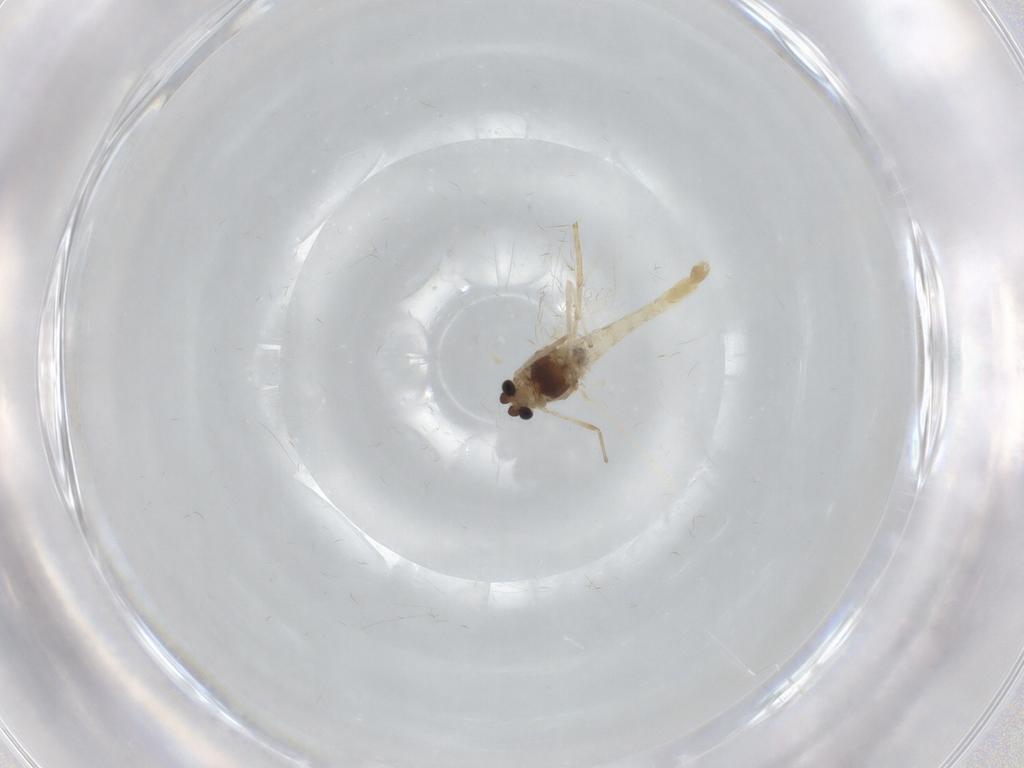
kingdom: Animalia
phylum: Arthropoda
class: Insecta
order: Diptera
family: Chironomidae
